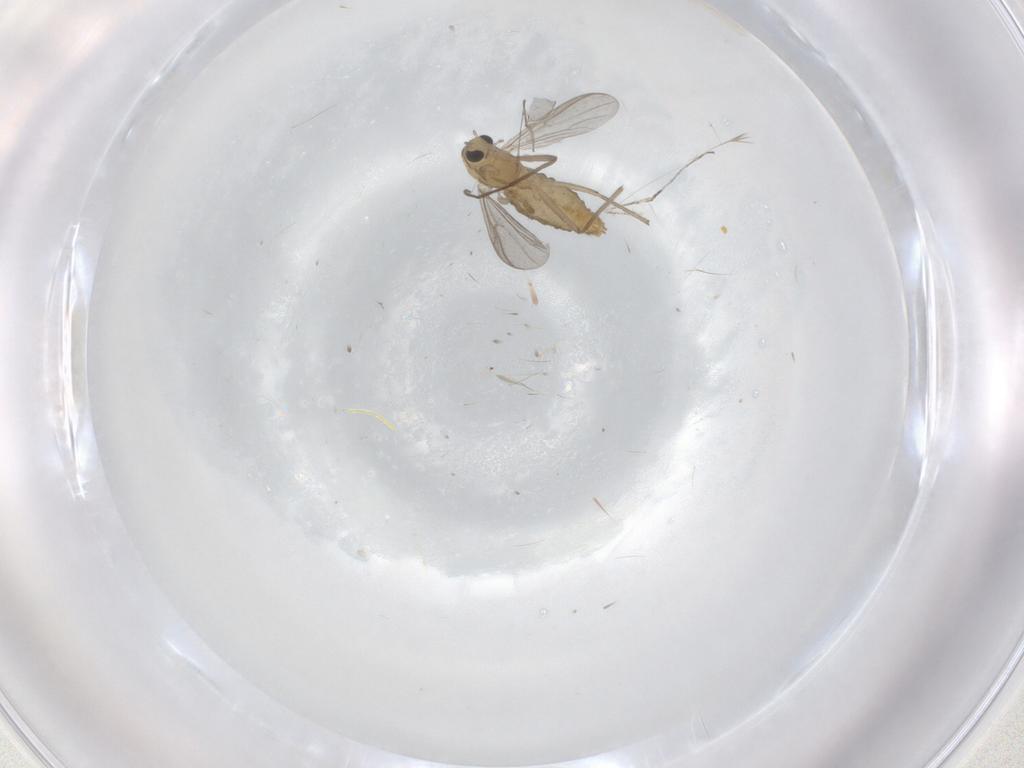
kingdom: Animalia
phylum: Arthropoda
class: Insecta
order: Diptera
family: Chironomidae
